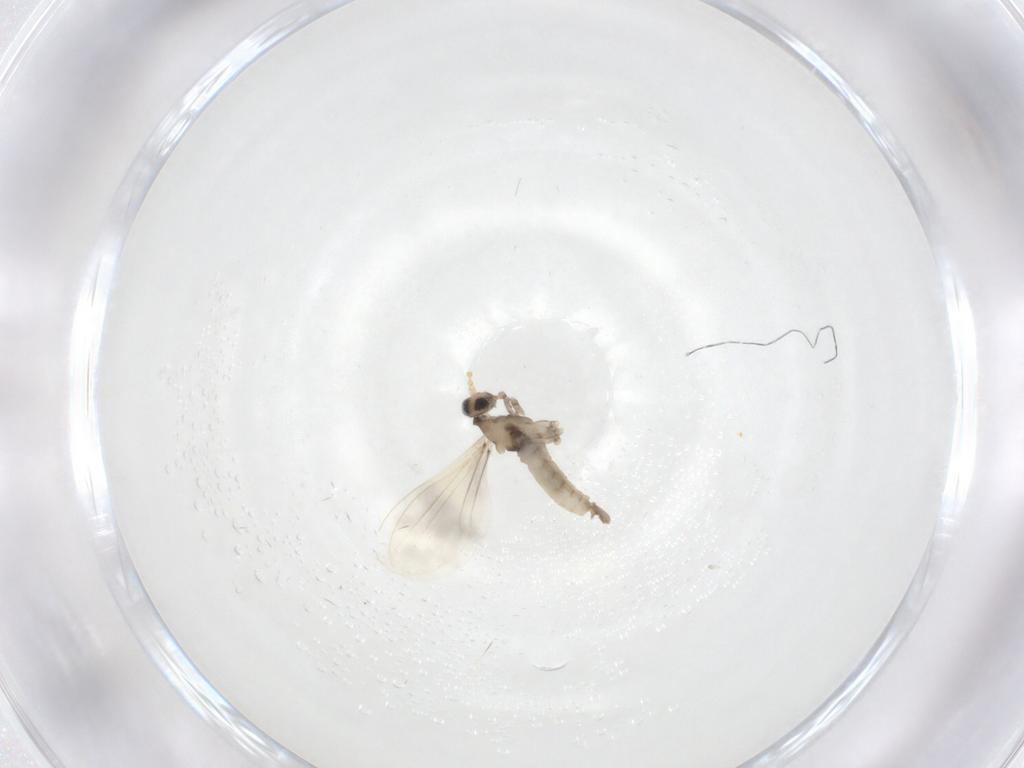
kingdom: Animalia
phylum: Arthropoda
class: Insecta
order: Diptera
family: Cecidomyiidae
